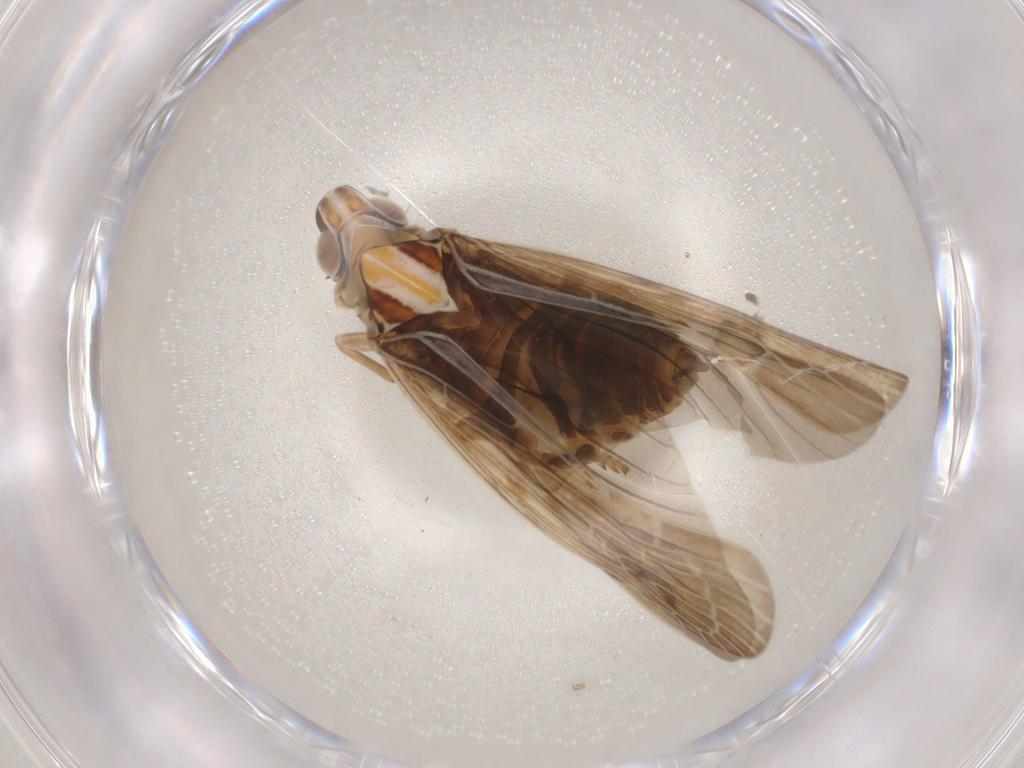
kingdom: Animalia
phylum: Arthropoda
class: Insecta
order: Hemiptera
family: Achilidae
